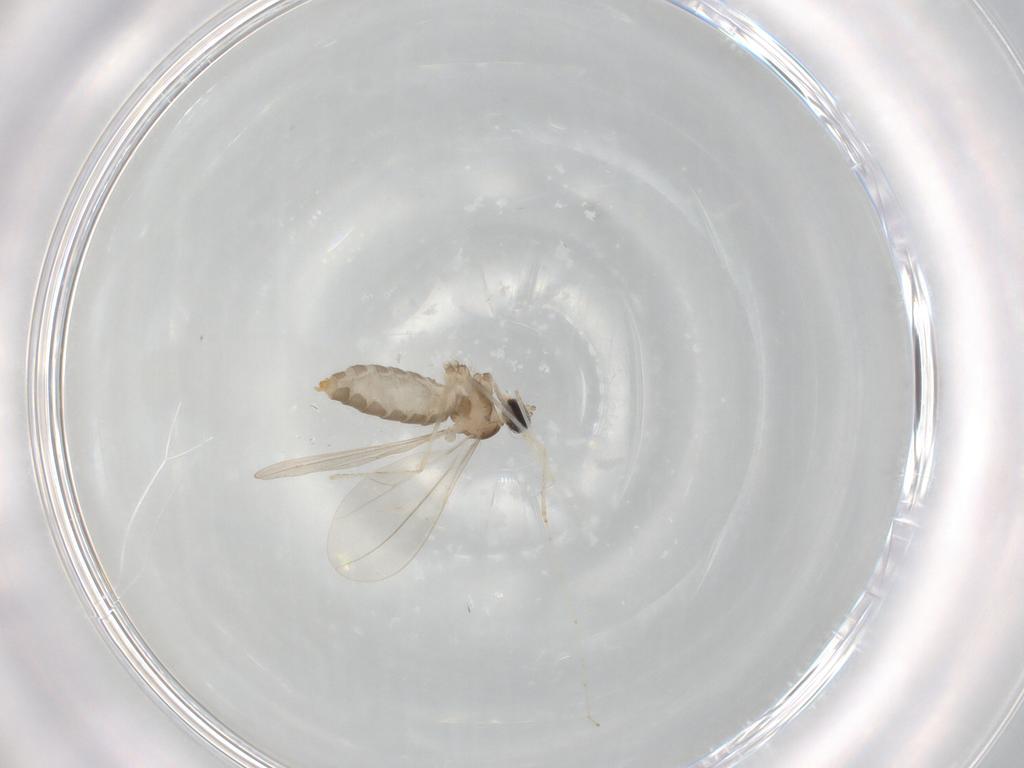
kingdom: Animalia
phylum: Arthropoda
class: Insecta
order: Diptera
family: Cecidomyiidae
